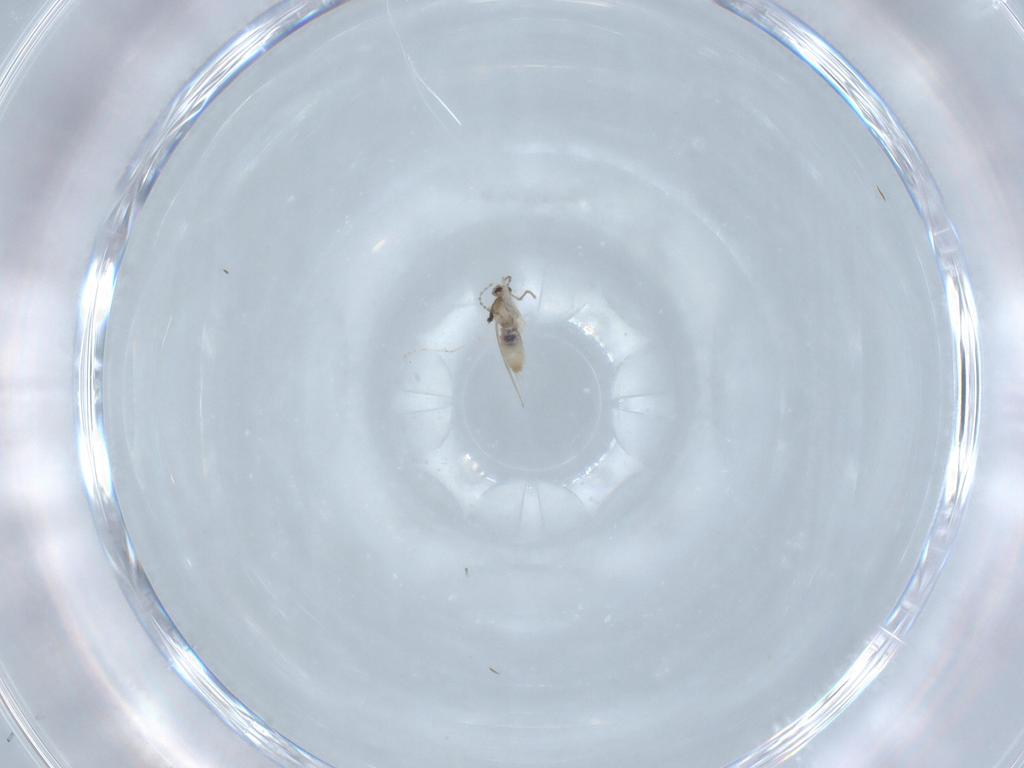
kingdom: Animalia
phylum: Arthropoda
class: Insecta
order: Diptera
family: Cecidomyiidae
